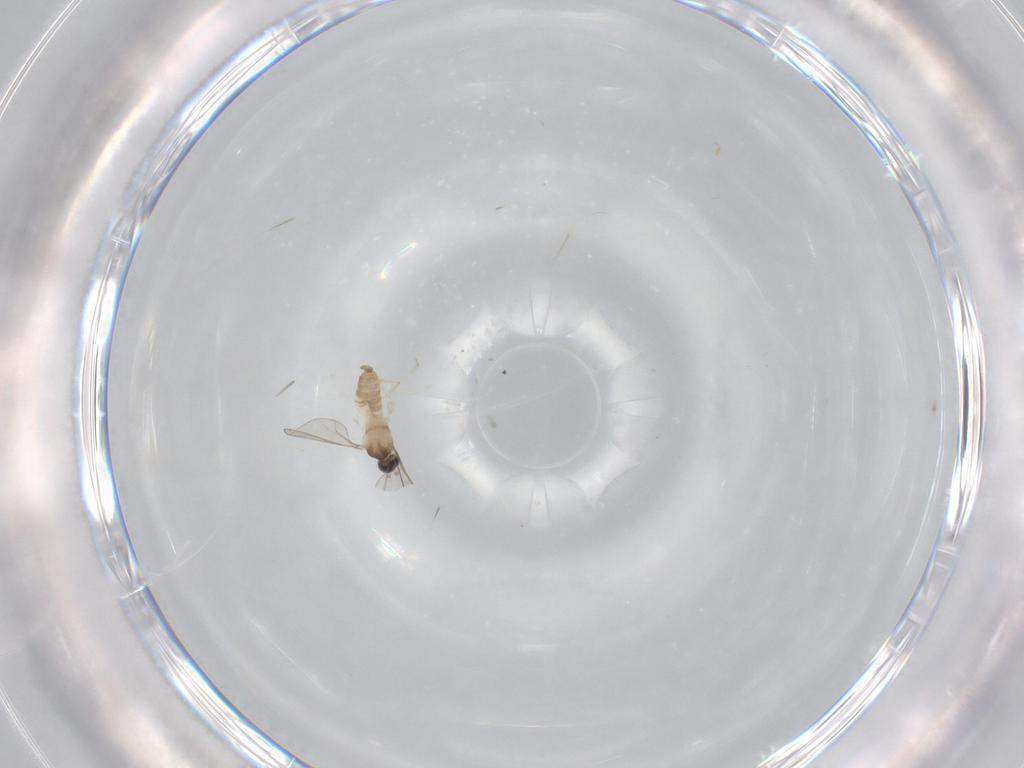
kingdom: Animalia
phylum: Arthropoda
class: Insecta
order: Diptera
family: Cecidomyiidae
